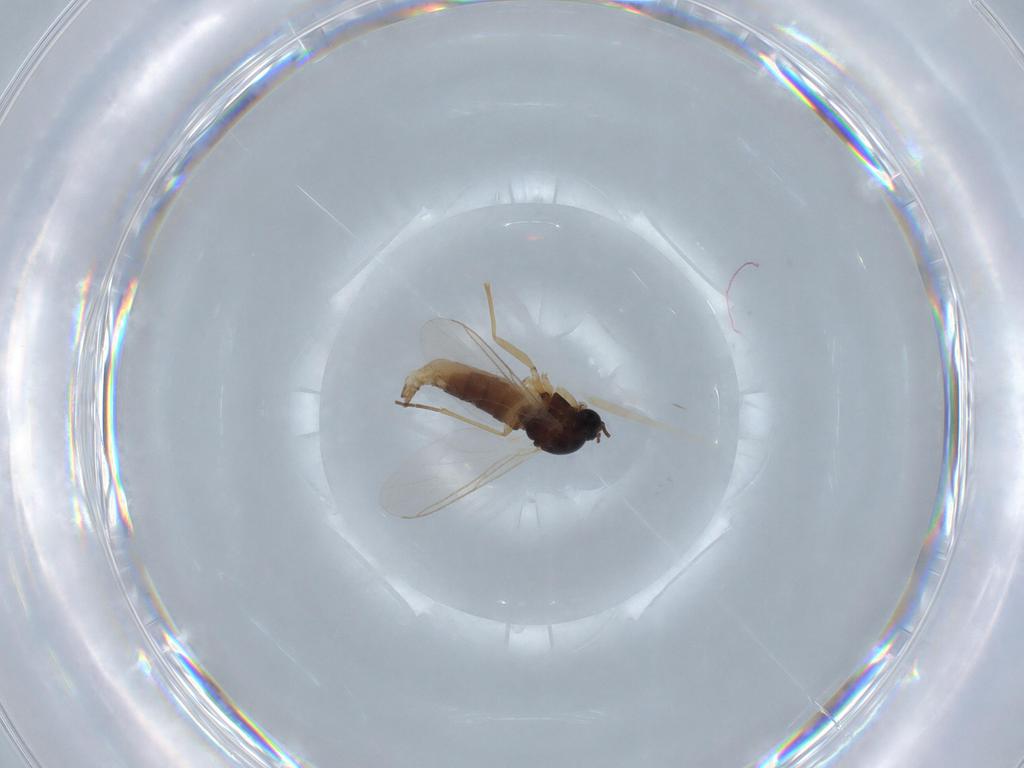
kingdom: Animalia
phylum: Arthropoda
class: Insecta
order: Diptera
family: Sciaridae
